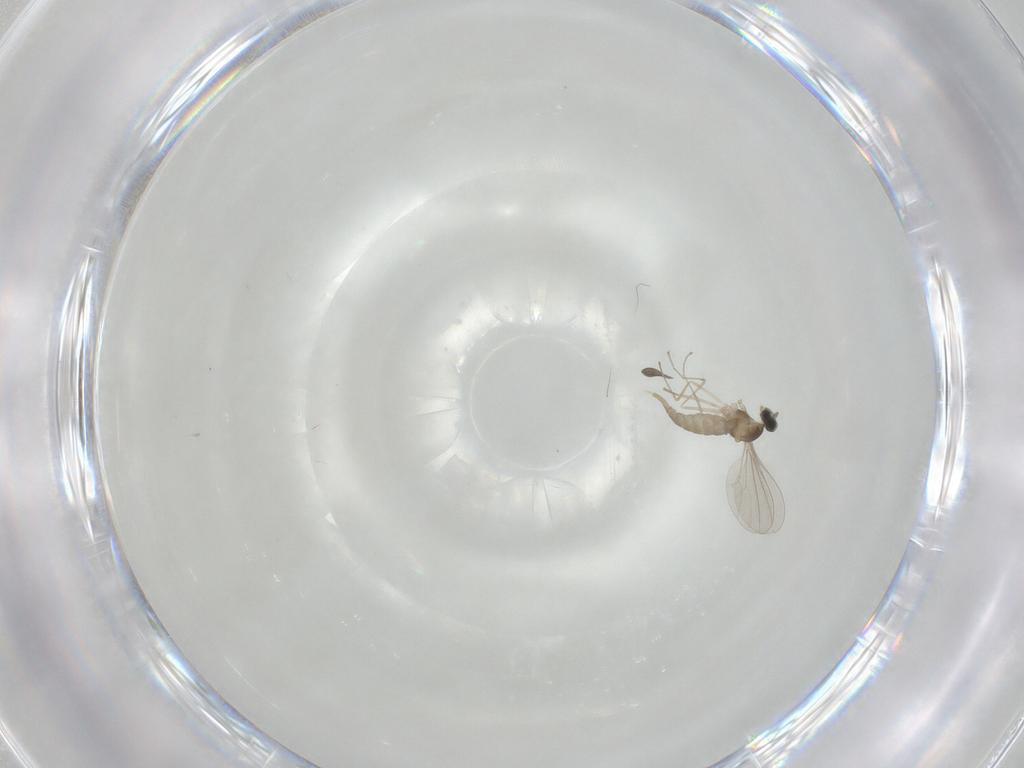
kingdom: Animalia
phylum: Arthropoda
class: Insecta
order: Diptera
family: Cecidomyiidae
